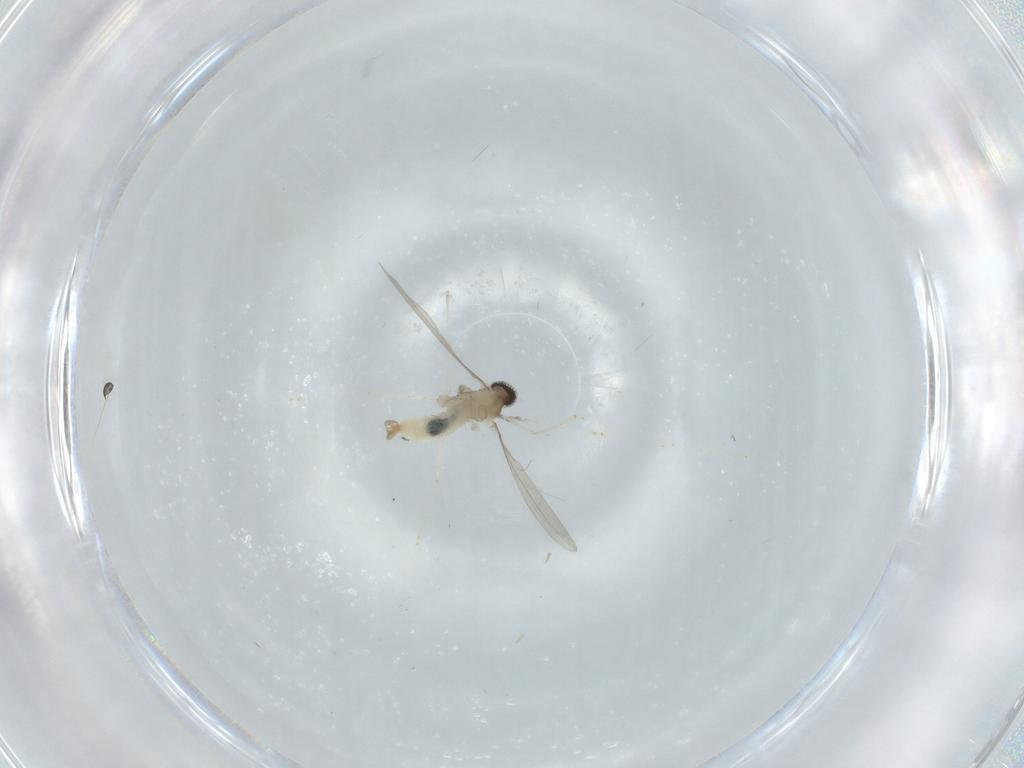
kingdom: Animalia
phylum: Arthropoda
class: Insecta
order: Diptera
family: Cecidomyiidae
